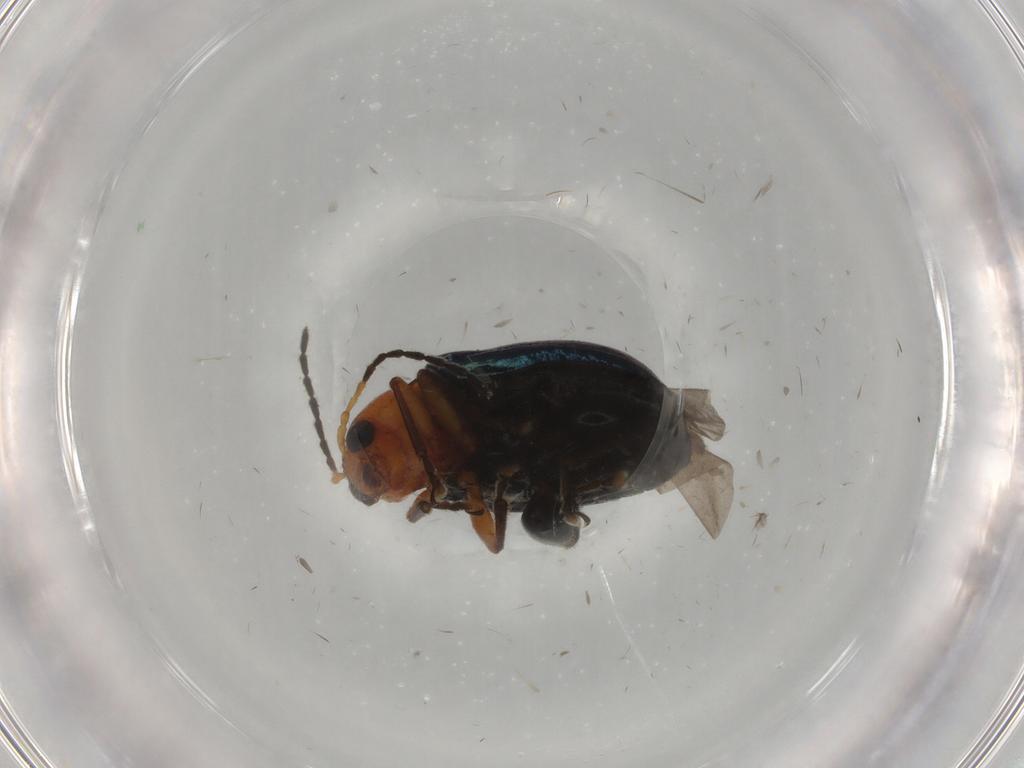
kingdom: Animalia
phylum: Arthropoda
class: Insecta
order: Coleoptera
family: Chrysomelidae
